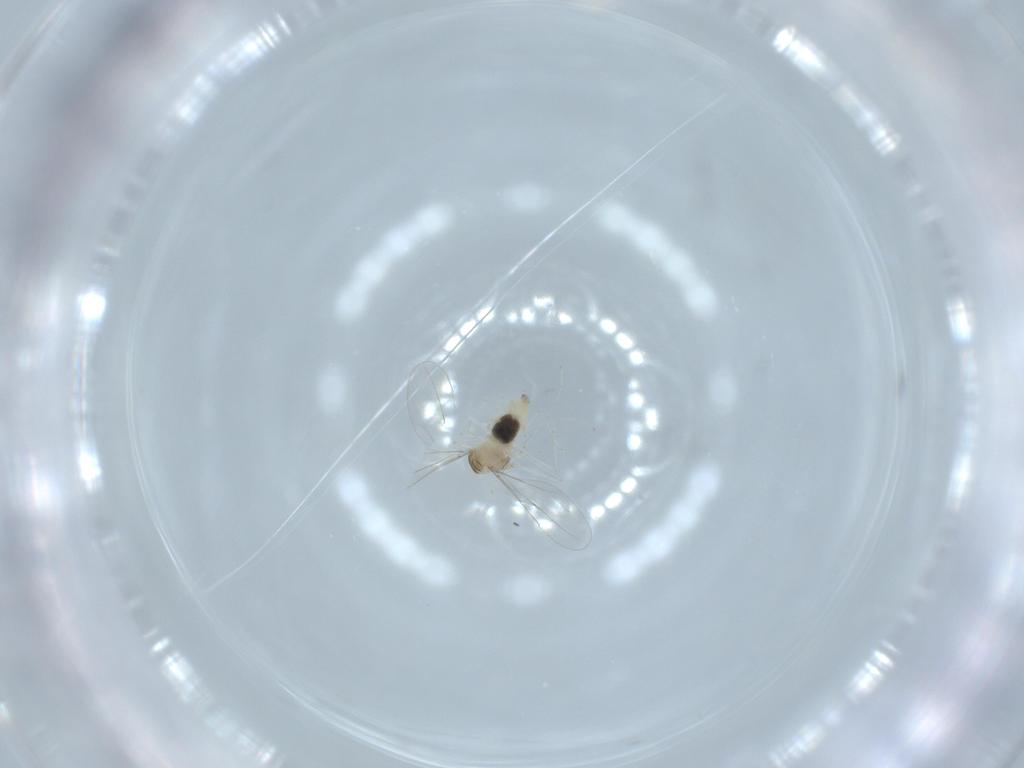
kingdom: Animalia
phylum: Arthropoda
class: Insecta
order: Diptera
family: Cecidomyiidae
